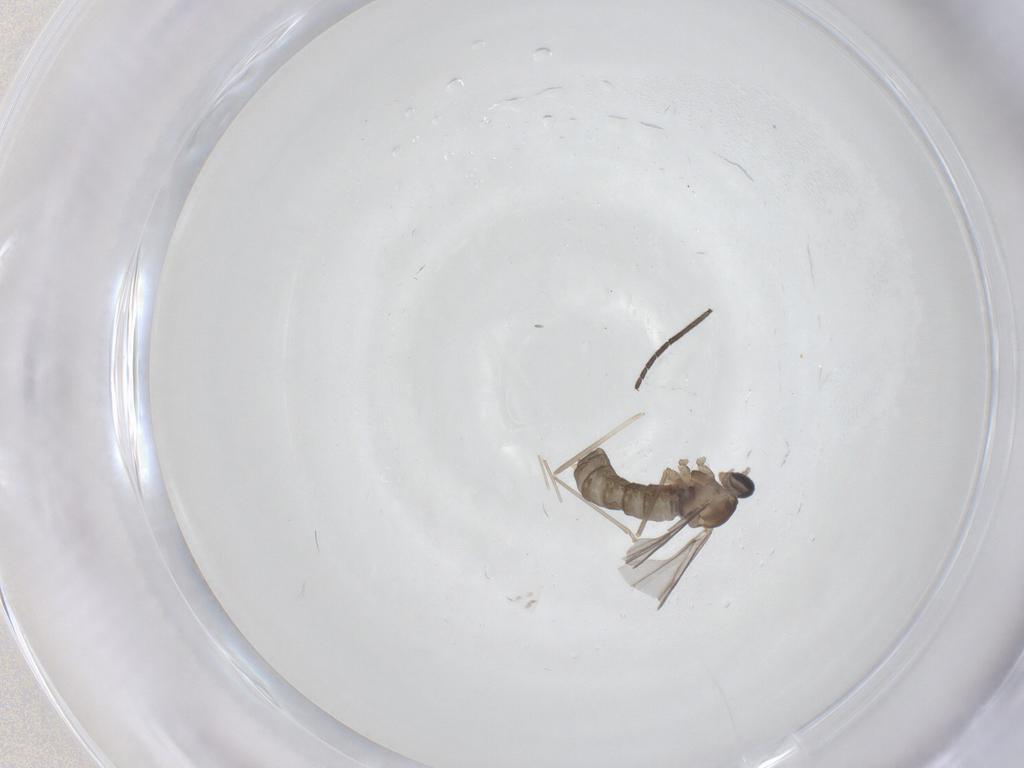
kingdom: Animalia
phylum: Arthropoda
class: Insecta
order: Diptera
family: Cecidomyiidae
